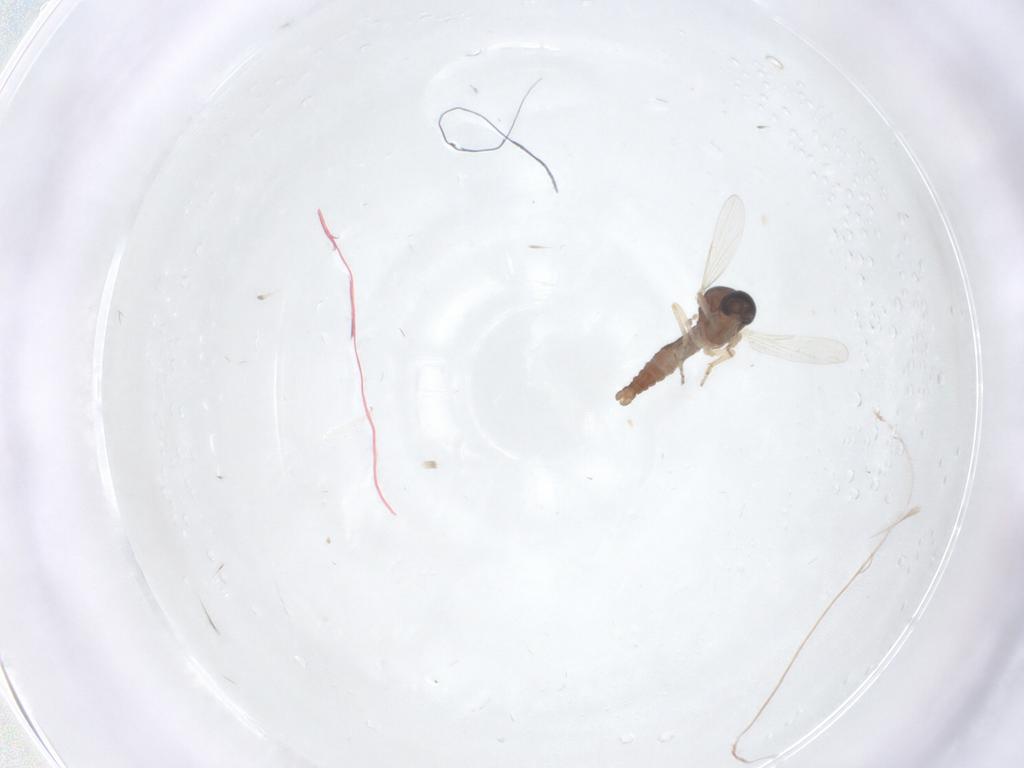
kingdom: Animalia
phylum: Arthropoda
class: Insecta
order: Diptera
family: Ceratopogonidae
